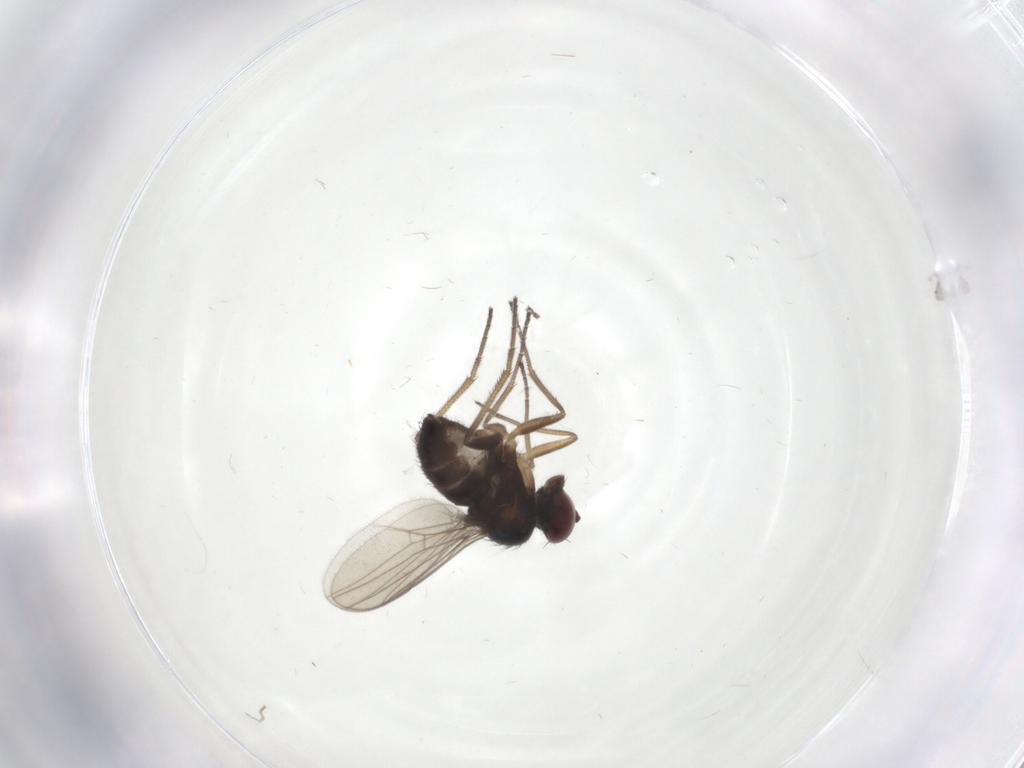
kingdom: Animalia
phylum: Arthropoda
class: Insecta
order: Diptera
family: Dolichopodidae
